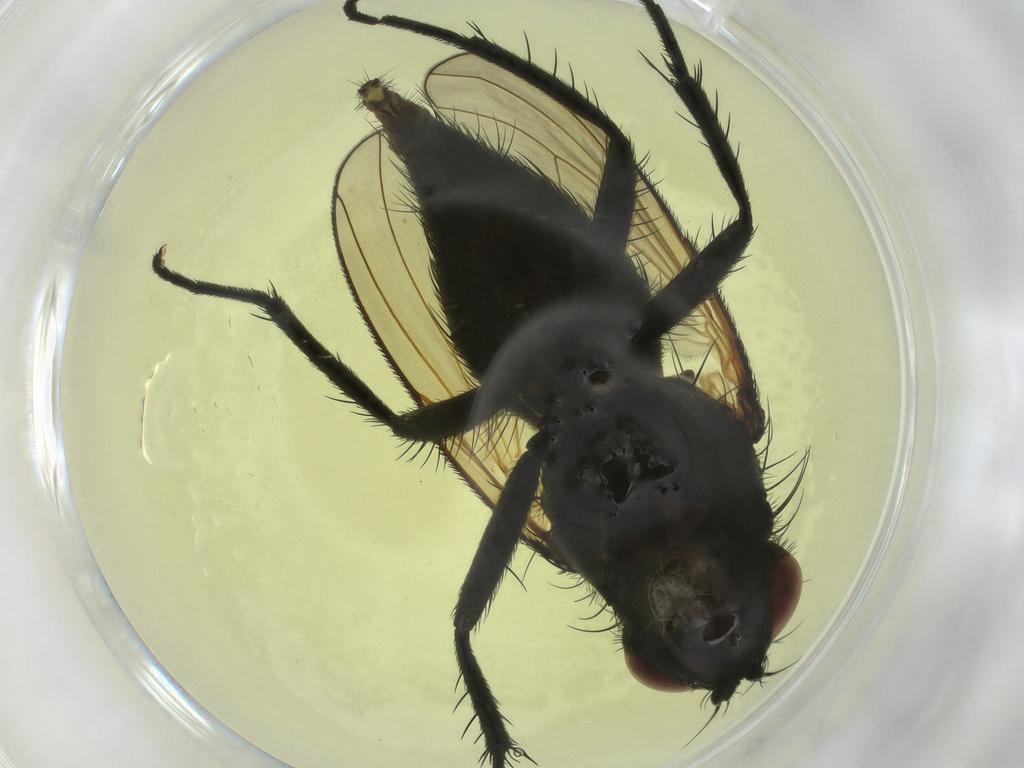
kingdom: Animalia
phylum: Arthropoda
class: Insecta
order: Diptera
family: Muscidae
